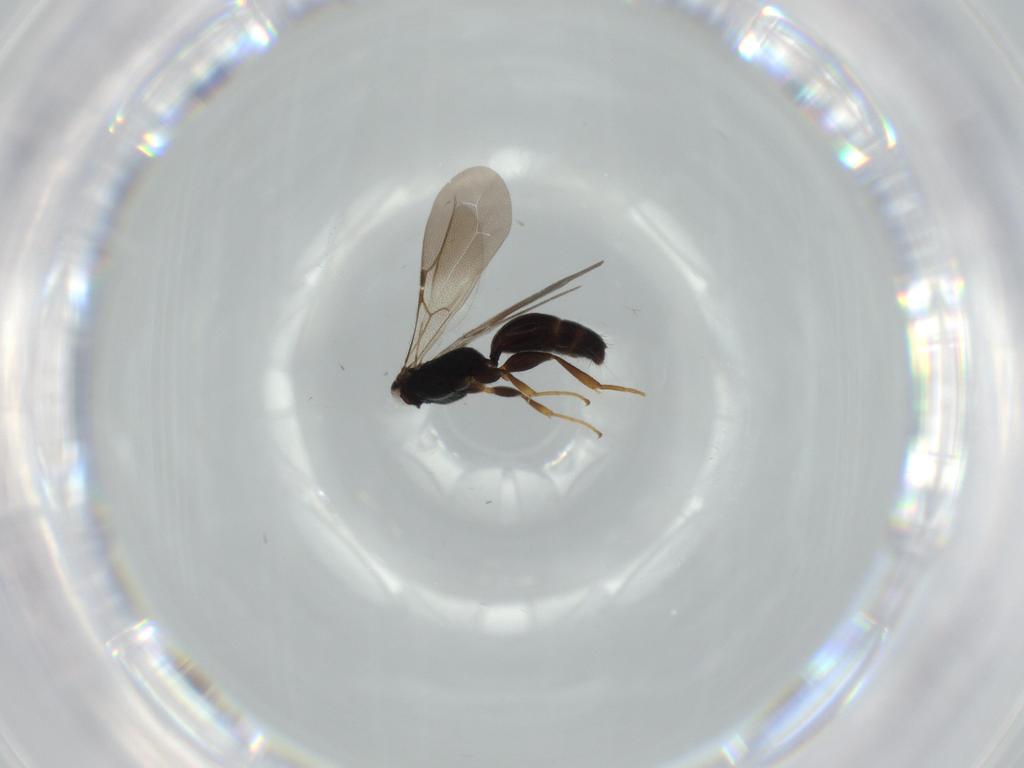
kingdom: Animalia
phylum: Arthropoda
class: Insecta
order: Hymenoptera
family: Bethylidae
